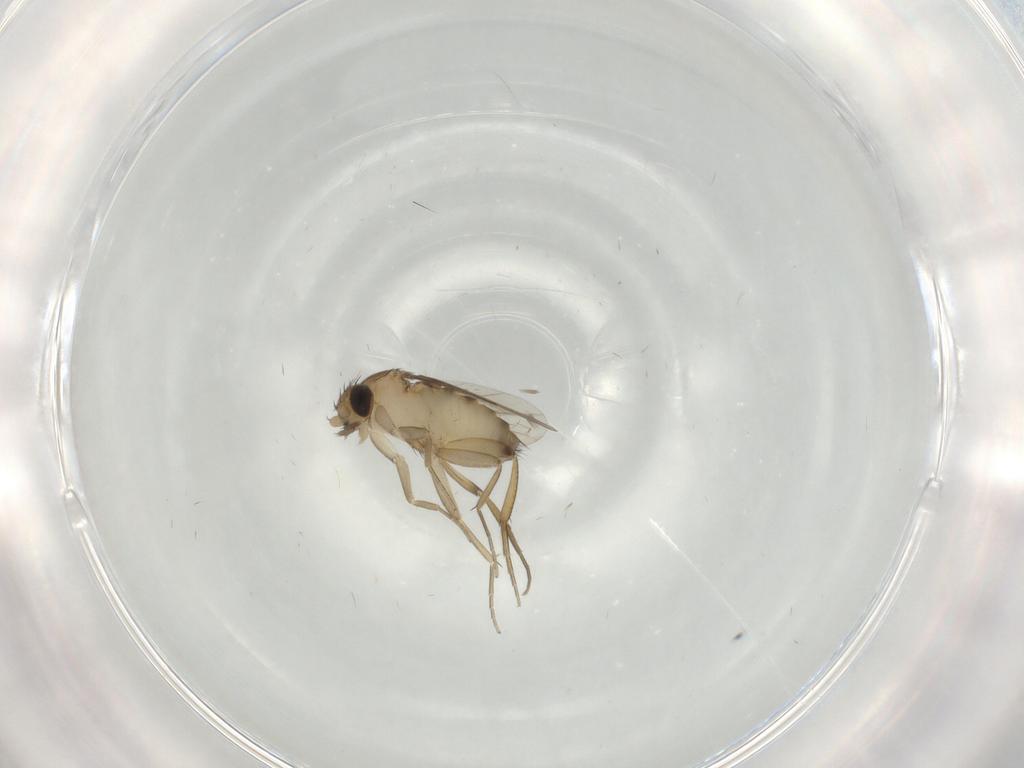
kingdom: Animalia
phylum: Arthropoda
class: Insecta
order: Diptera
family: Phoridae
